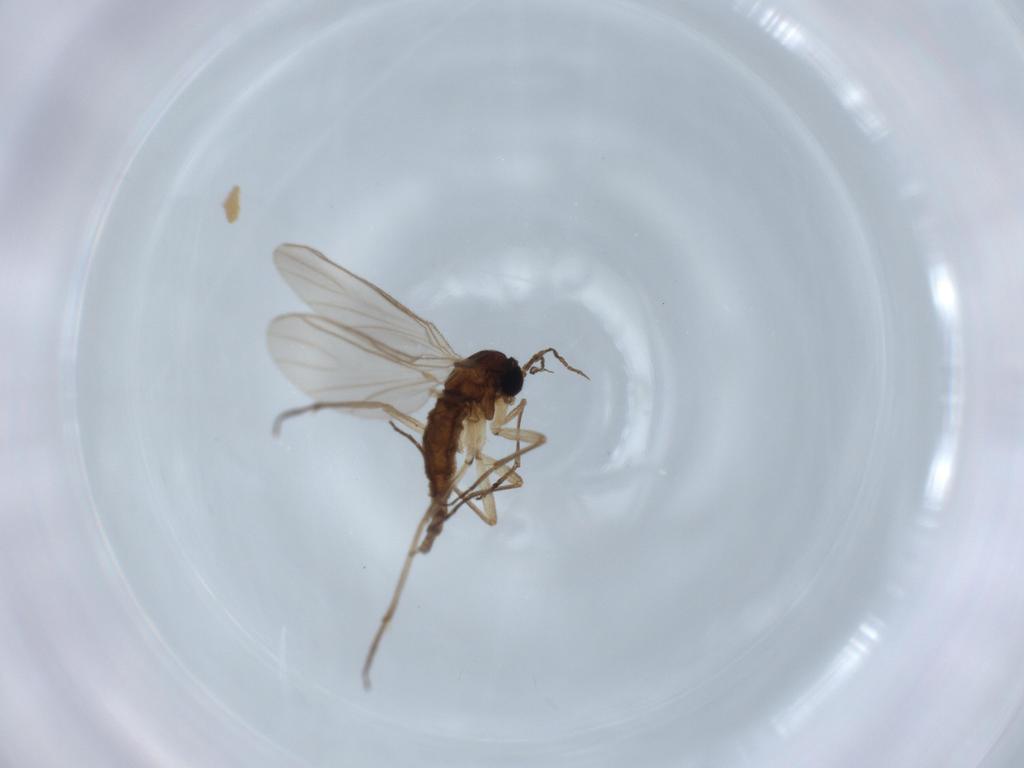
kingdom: Animalia
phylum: Arthropoda
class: Insecta
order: Diptera
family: Sciaridae
